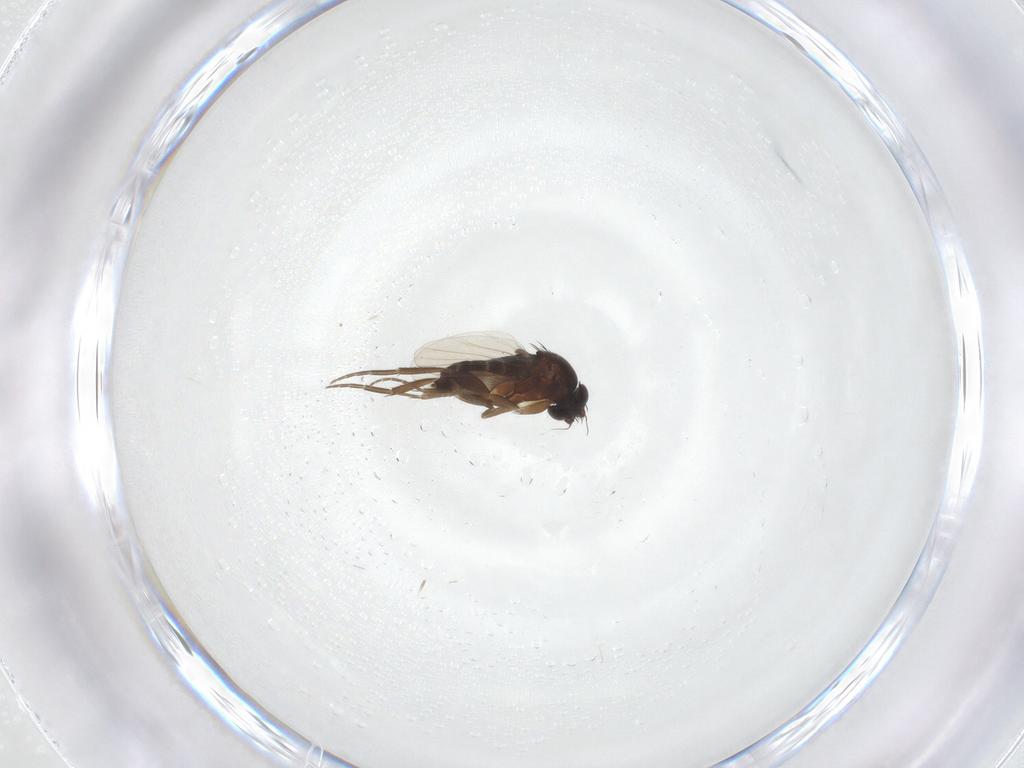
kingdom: Animalia
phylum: Arthropoda
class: Insecta
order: Diptera
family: Phoridae
